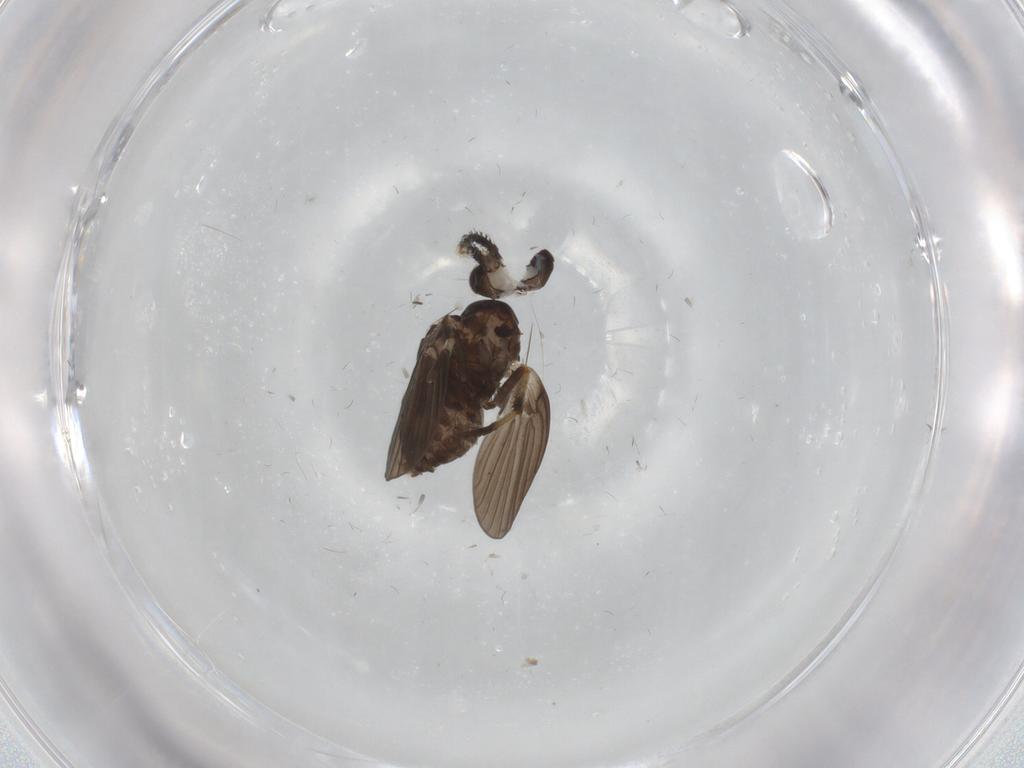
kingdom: Animalia
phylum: Arthropoda
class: Insecta
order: Diptera
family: Psychodidae
